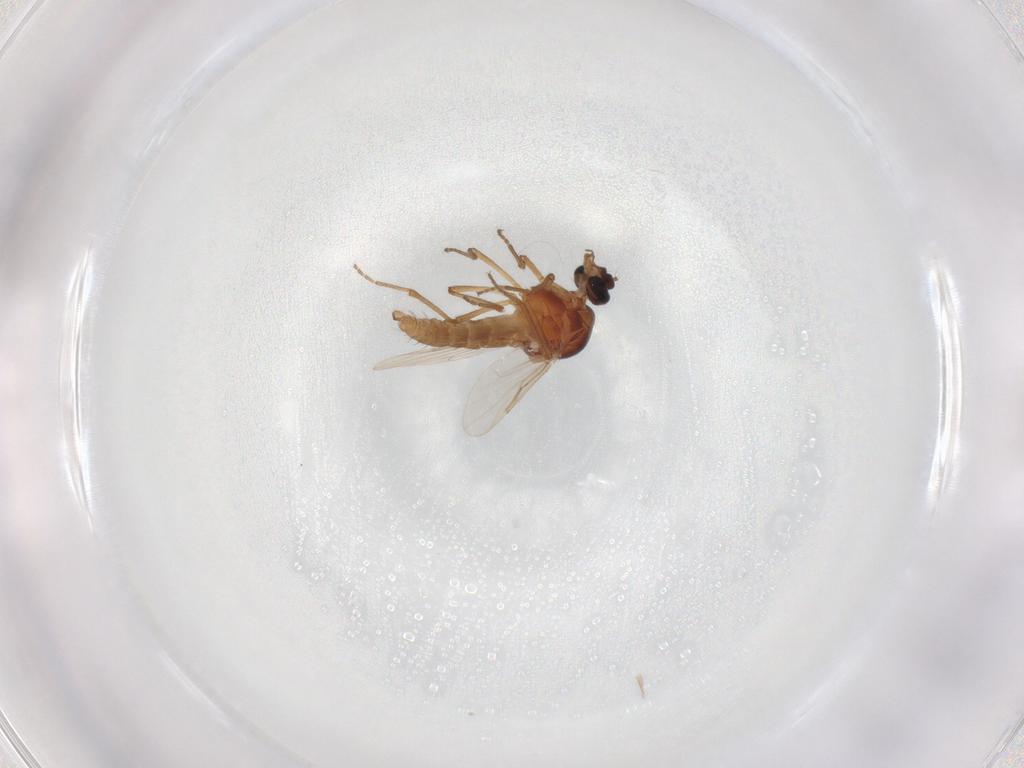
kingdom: Animalia
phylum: Arthropoda
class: Insecta
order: Diptera
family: Ceratopogonidae
